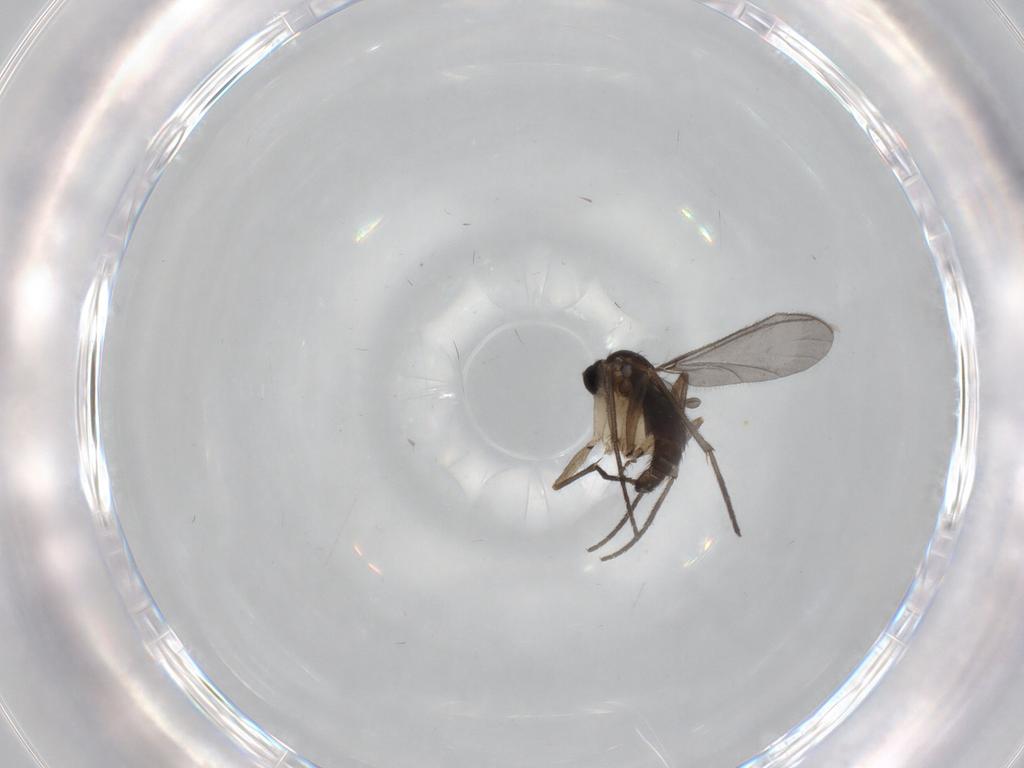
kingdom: Animalia
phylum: Arthropoda
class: Insecta
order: Diptera
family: Sciaridae
